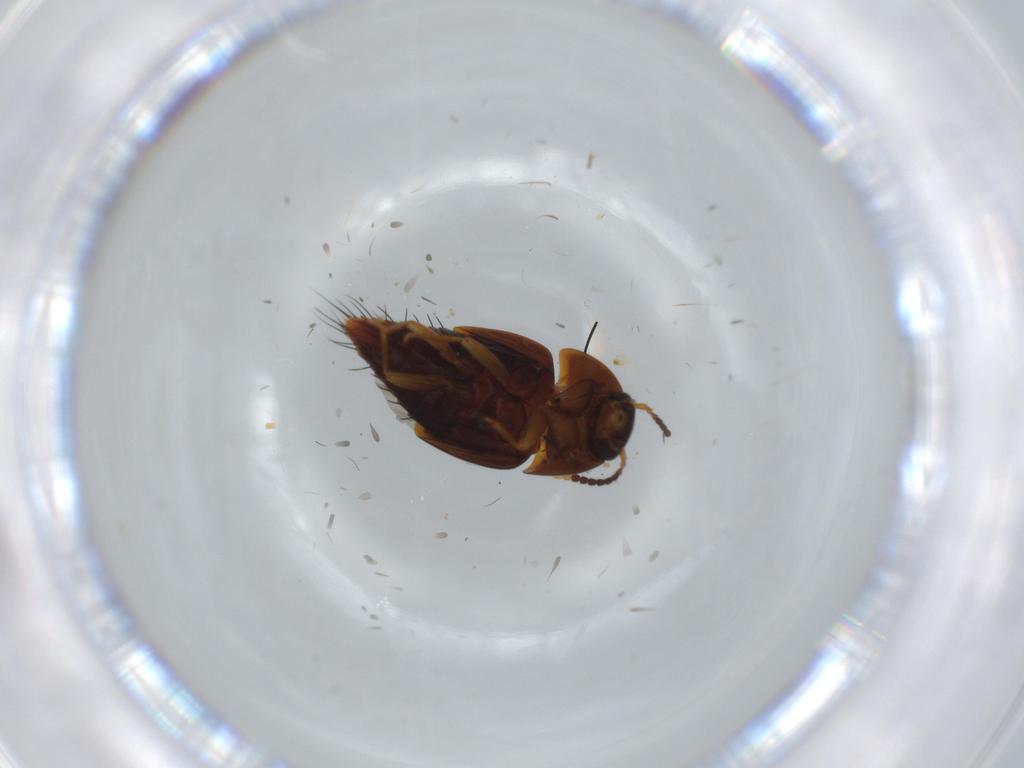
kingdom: Animalia
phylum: Arthropoda
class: Insecta
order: Coleoptera
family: Staphylinidae
